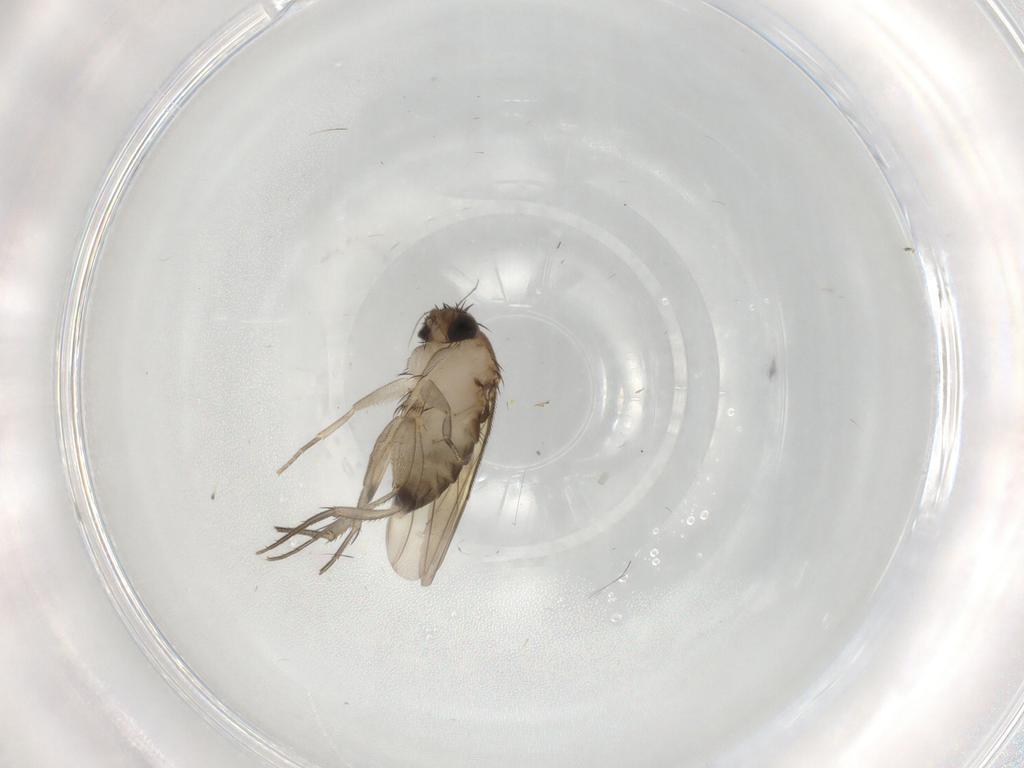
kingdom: Animalia
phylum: Arthropoda
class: Insecta
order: Diptera
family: Phoridae
